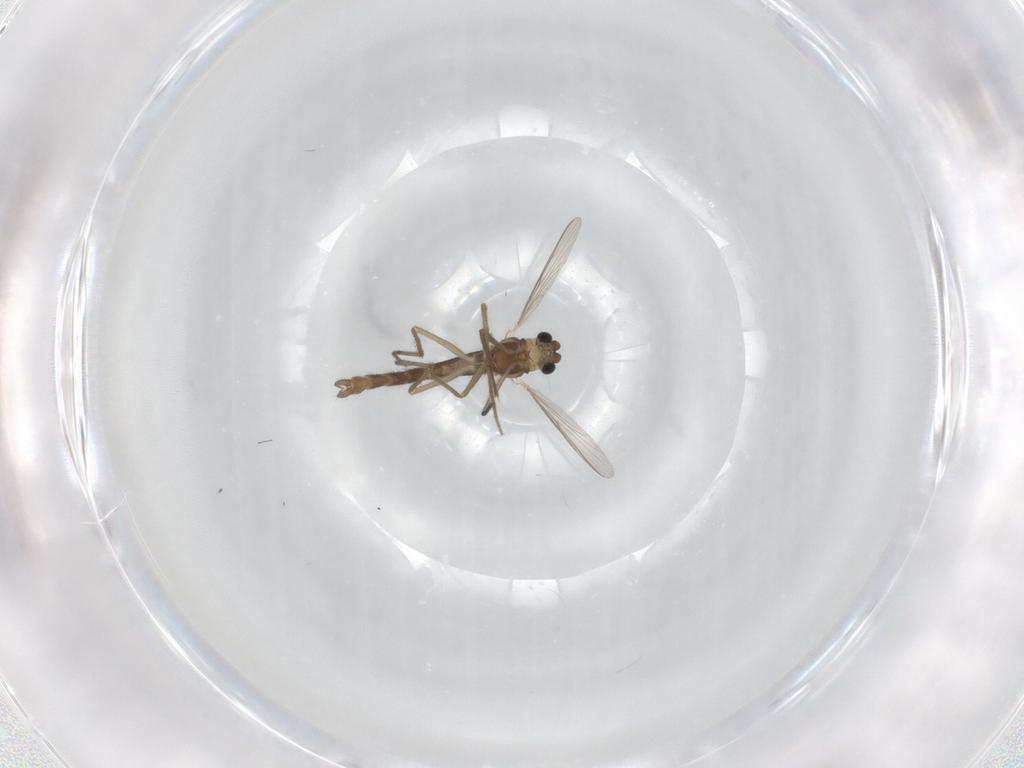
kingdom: Animalia
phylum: Arthropoda
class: Insecta
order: Diptera
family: Chironomidae
